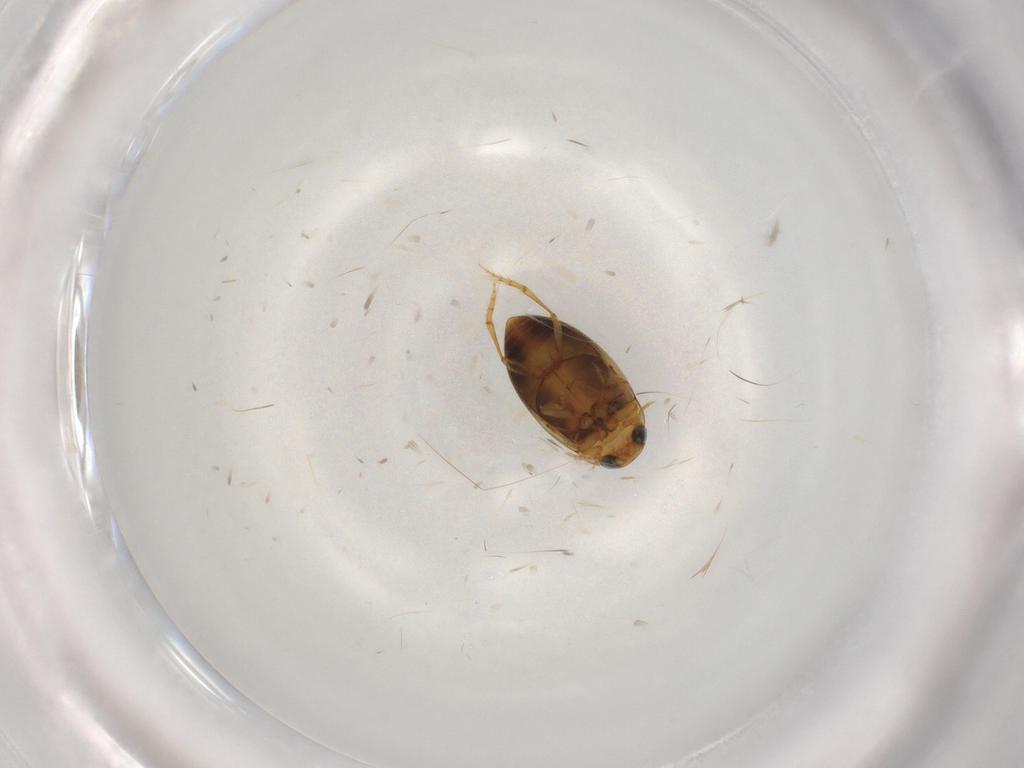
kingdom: Animalia
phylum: Arthropoda
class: Insecta
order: Coleoptera
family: Dytiscidae
